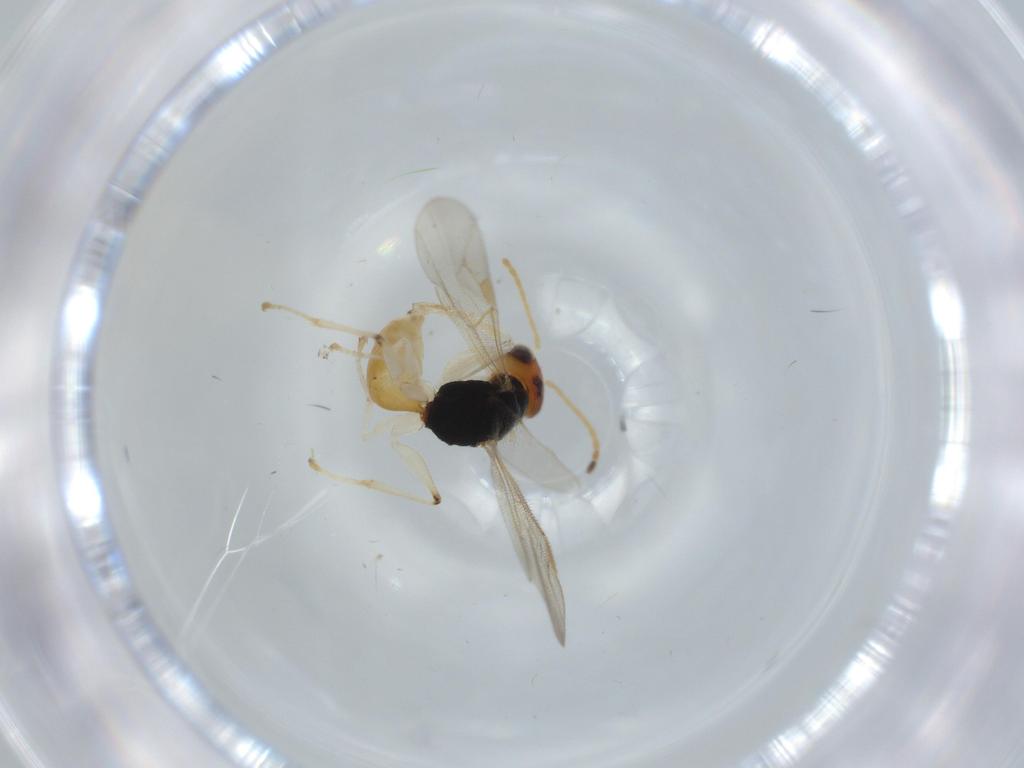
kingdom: Animalia
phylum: Arthropoda
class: Insecta
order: Hymenoptera
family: Dryinidae
